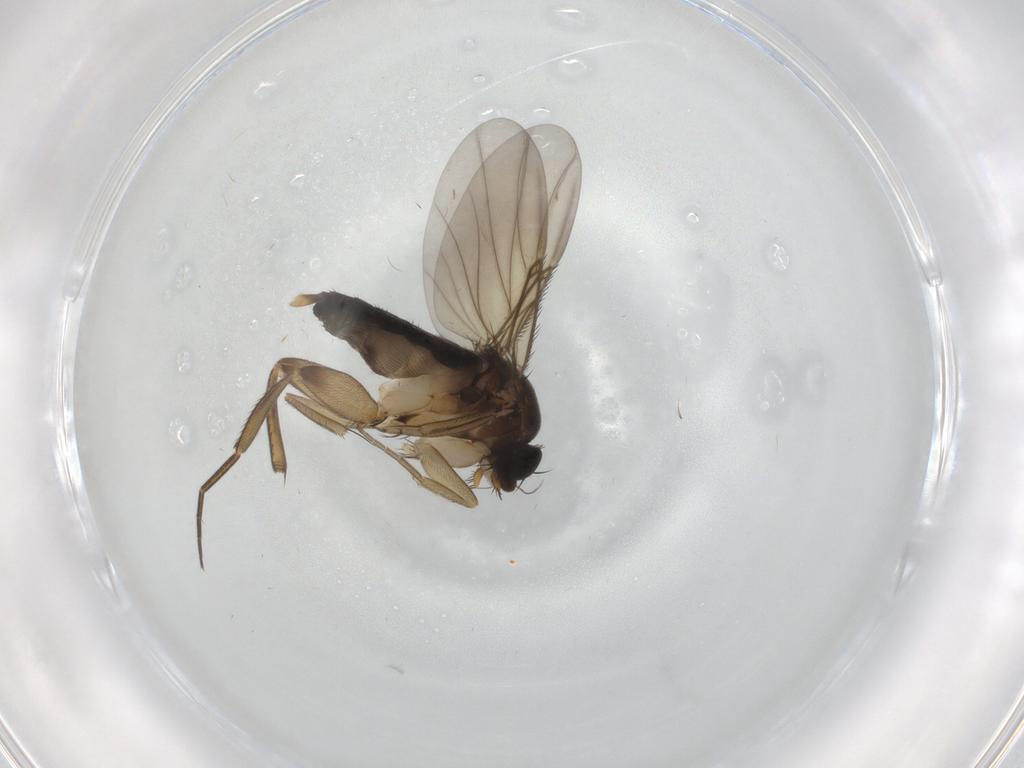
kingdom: Animalia
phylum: Arthropoda
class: Insecta
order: Diptera
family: Phoridae
